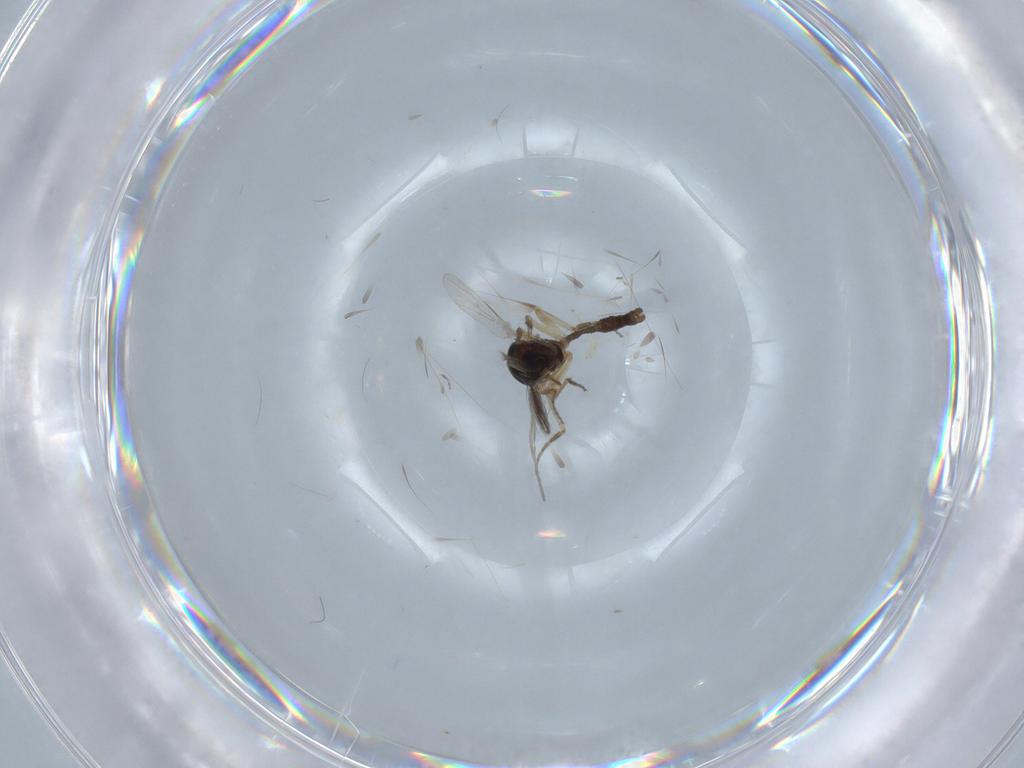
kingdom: Animalia
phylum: Arthropoda
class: Insecta
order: Diptera
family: Ceratopogonidae
